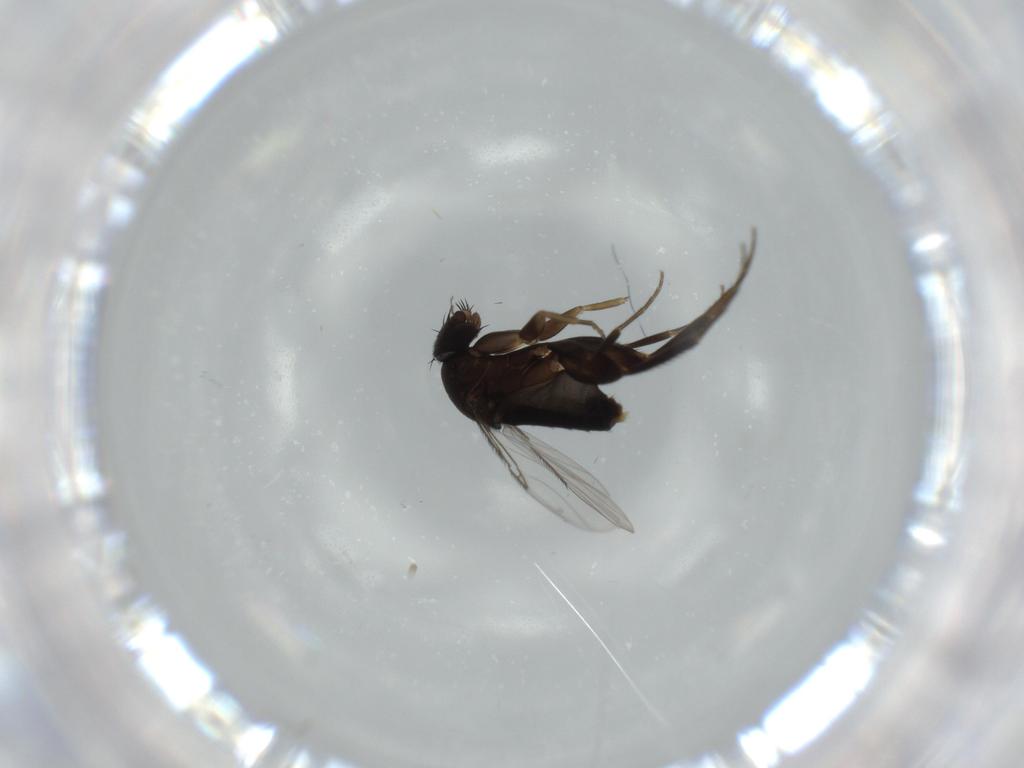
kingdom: Animalia
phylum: Arthropoda
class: Insecta
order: Diptera
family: Phoridae
